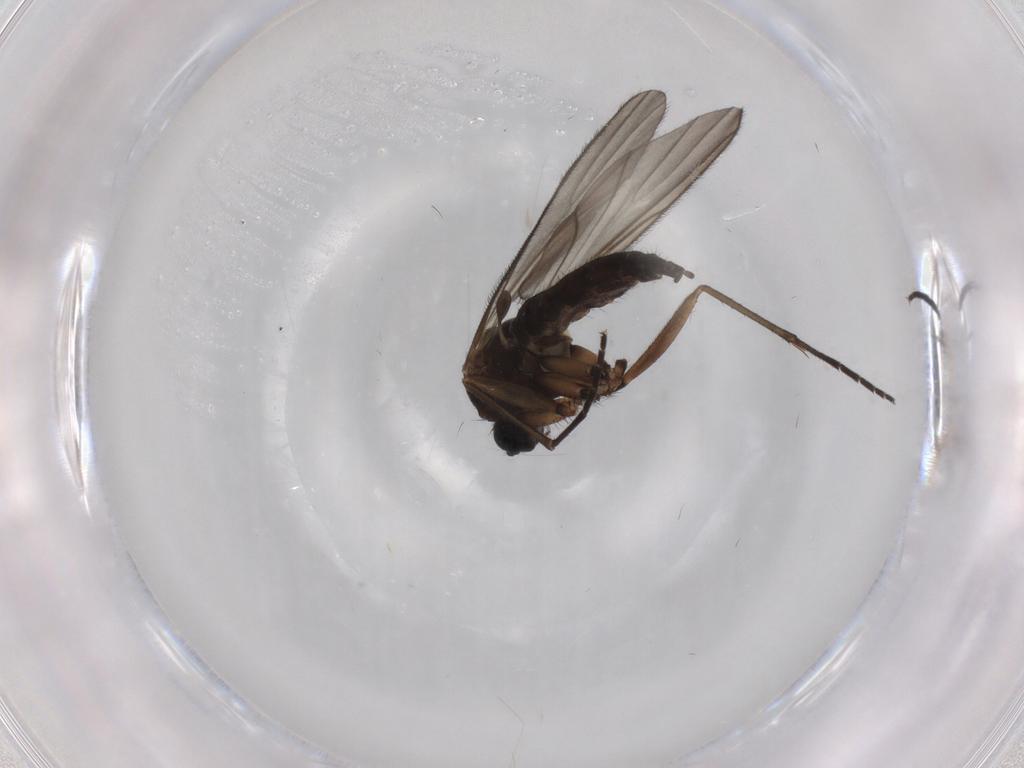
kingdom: Animalia
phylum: Arthropoda
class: Insecta
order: Diptera
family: Sciaridae
